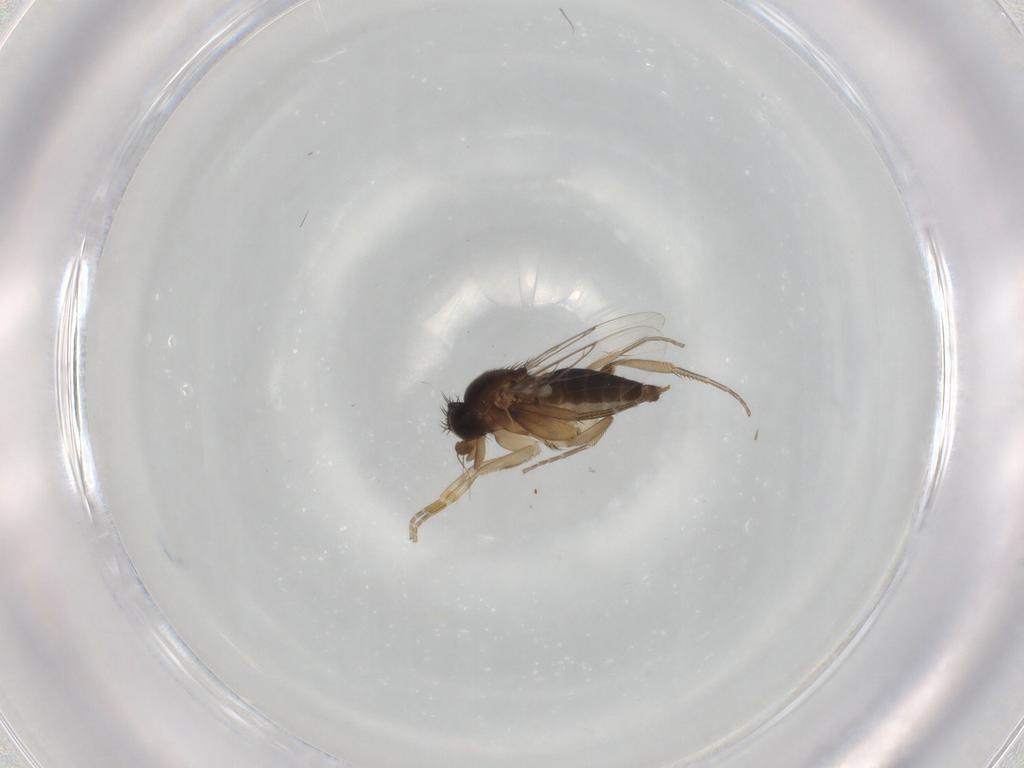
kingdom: Animalia
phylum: Arthropoda
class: Insecta
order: Diptera
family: Phoridae
